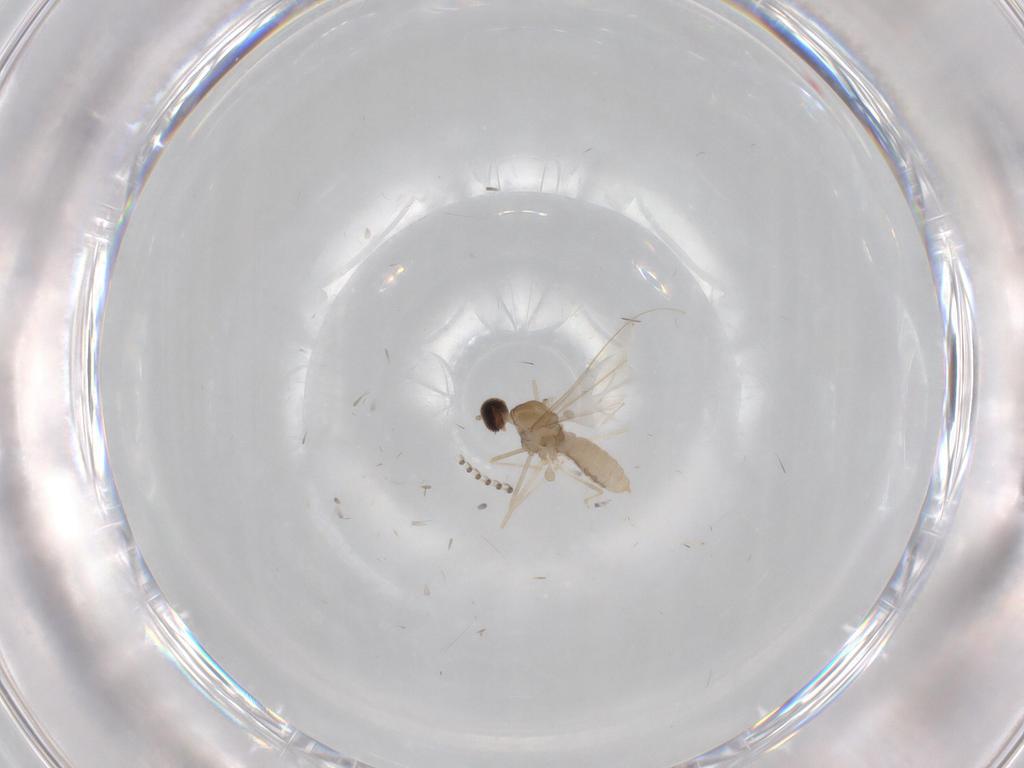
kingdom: Animalia
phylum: Arthropoda
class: Insecta
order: Diptera
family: Cecidomyiidae
